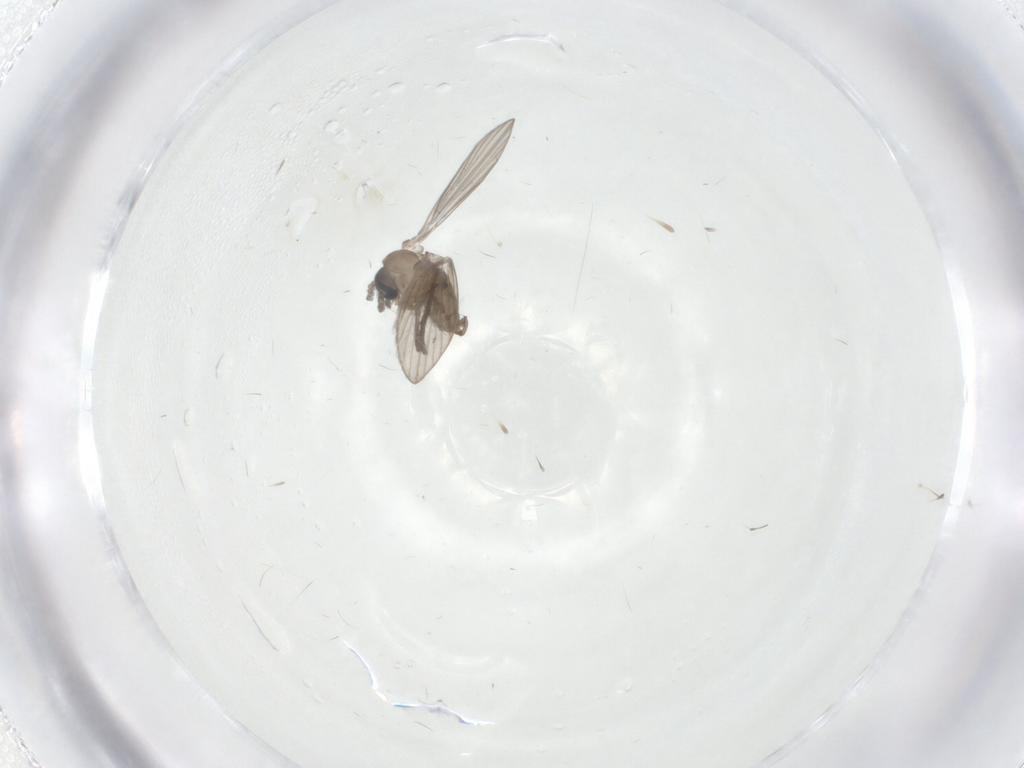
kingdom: Animalia
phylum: Arthropoda
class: Insecta
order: Diptera
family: Psychodidae
